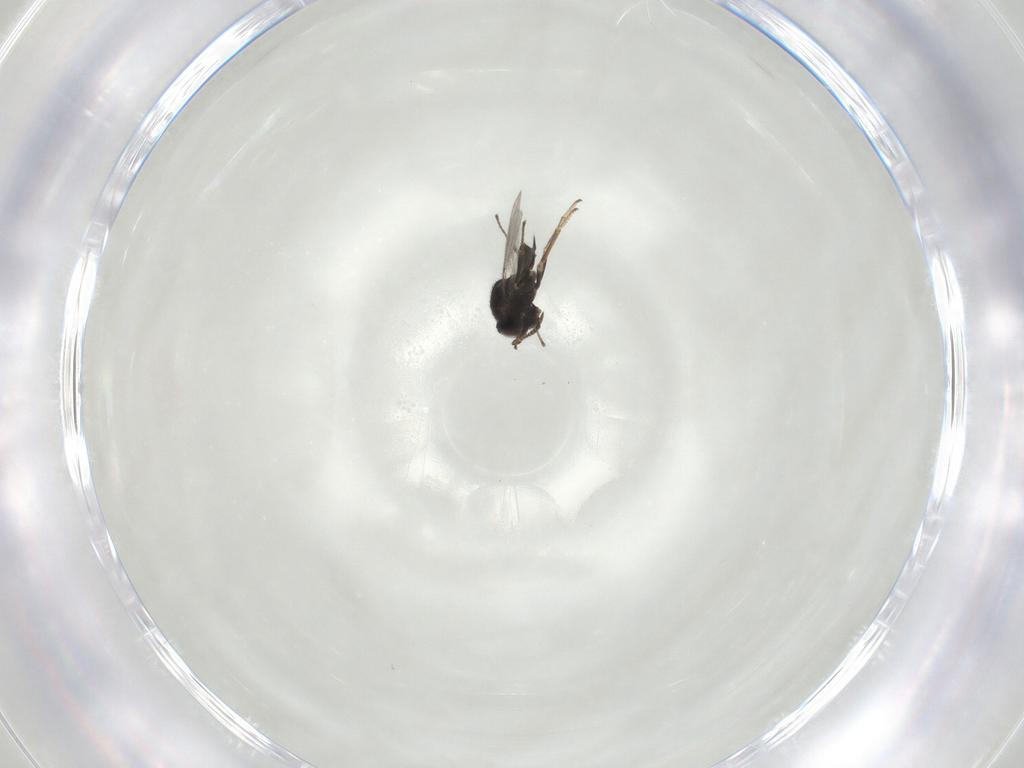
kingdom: Animalia
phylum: Arthropoda
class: Insecta
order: Hymenoptera
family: Encyrtidae
